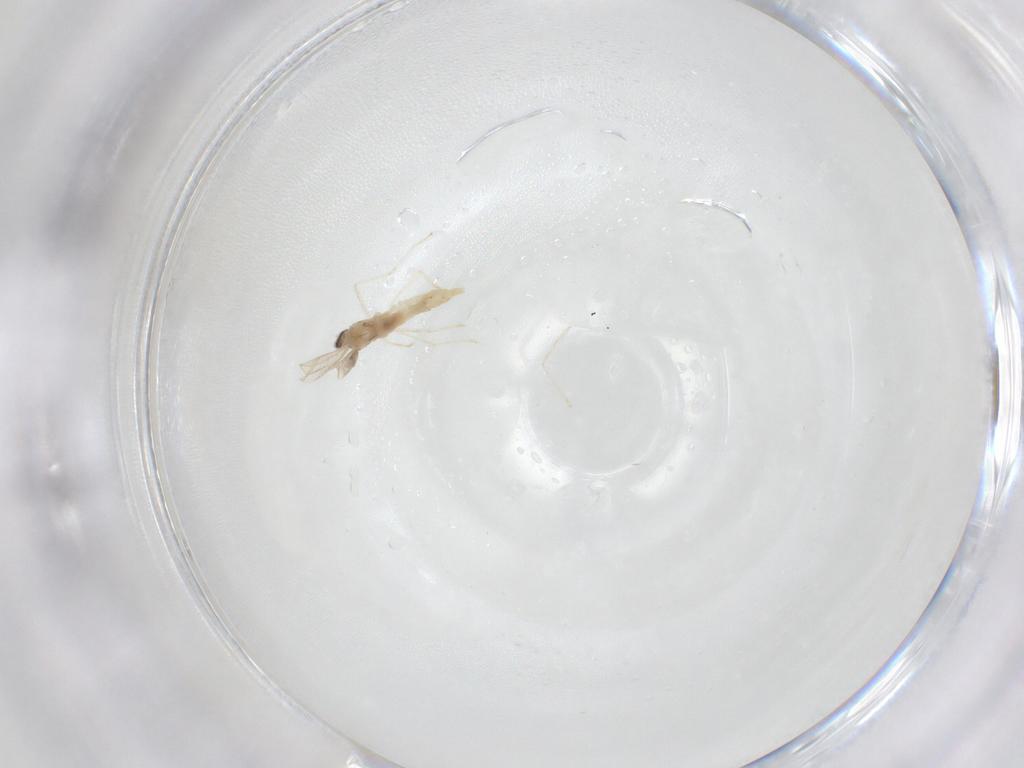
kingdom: Animalia
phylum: Arthropoda
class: Insecta
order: Diptera
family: Cecidomyiidae
